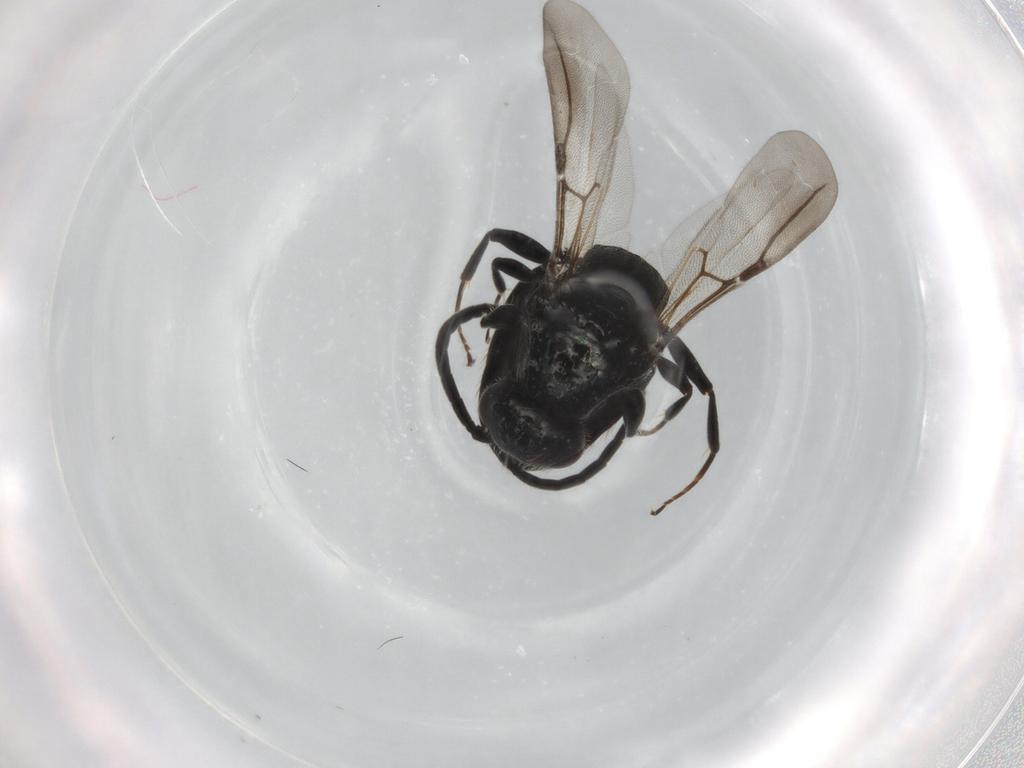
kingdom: Animalia
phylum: Arthropoda
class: Insecta
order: Hymenoptera
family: Bethylidae
